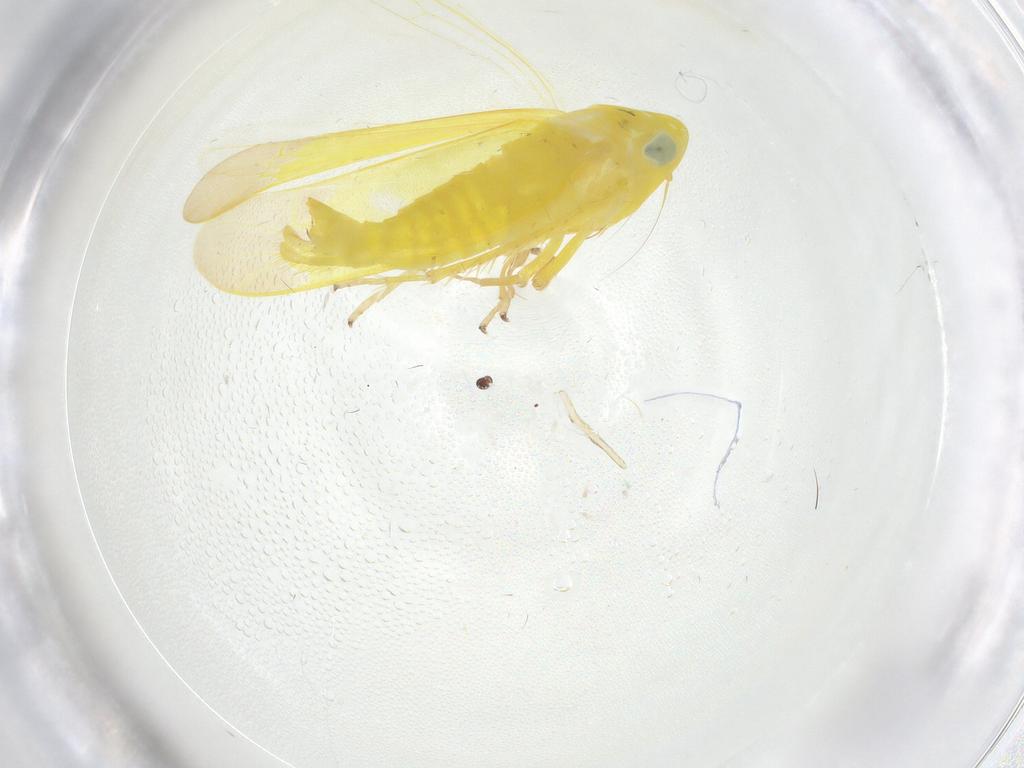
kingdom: Animalia
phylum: Arthropoda
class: Insecta
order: Hemiptera
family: Cicadellidae
